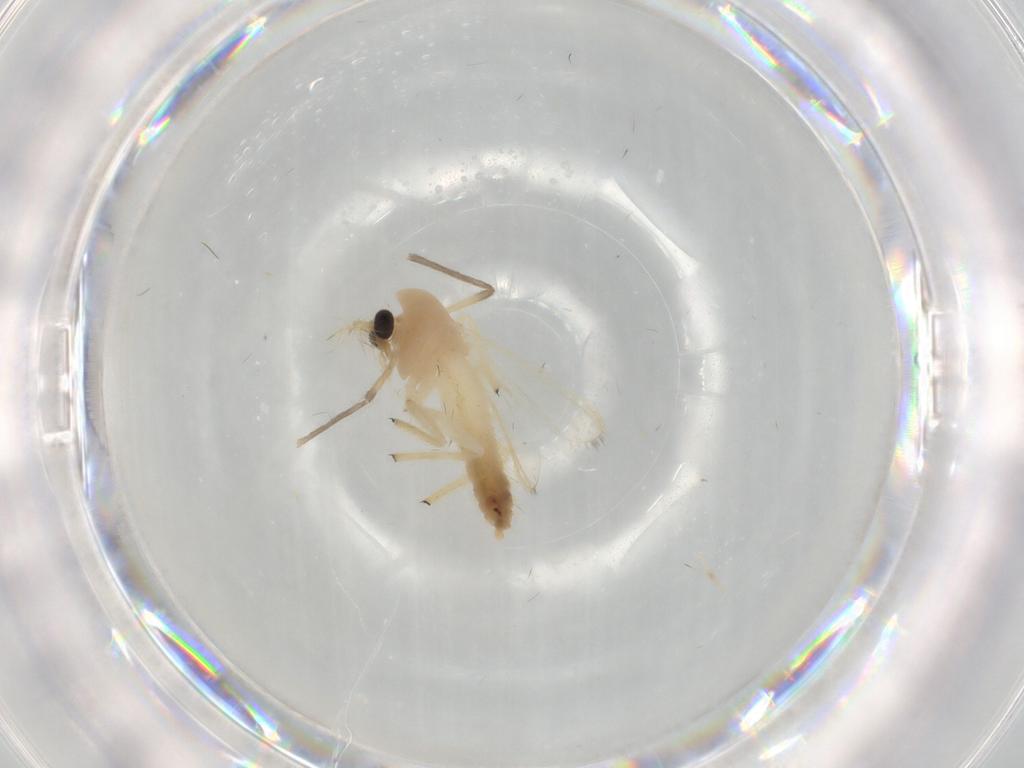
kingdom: Animalia
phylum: Arthropoda
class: Insecta
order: Diptera
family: Chironomidae
